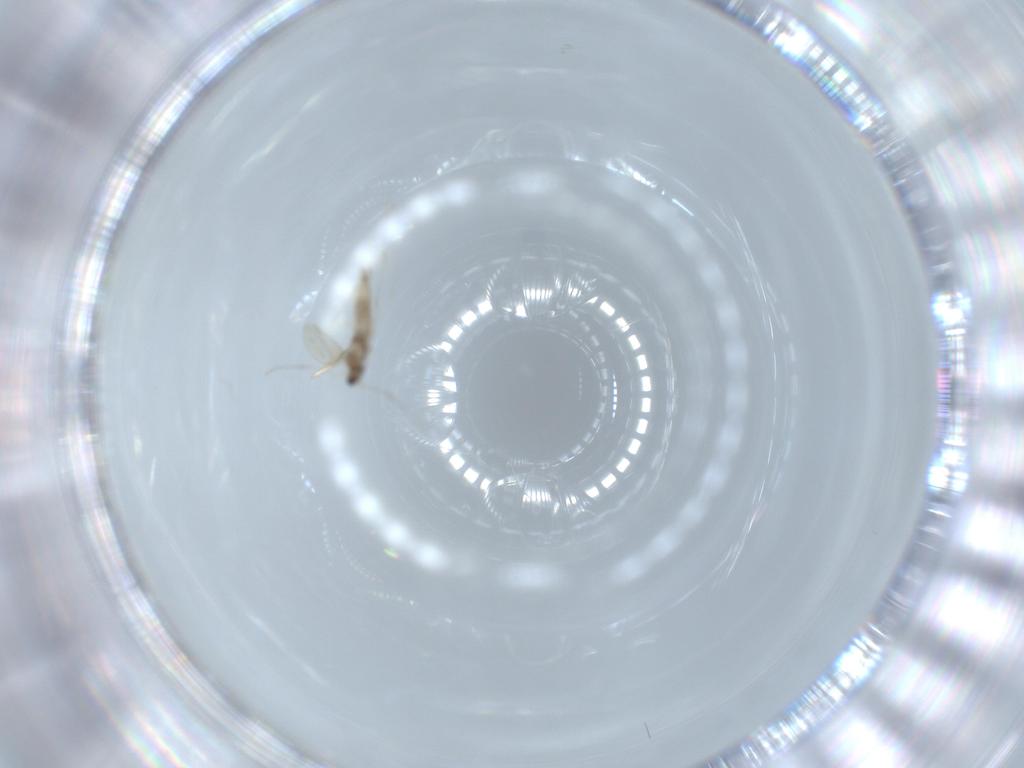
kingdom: Animalia
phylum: Arthropoda
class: Insecta
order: Diptera
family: Cecidomyiidae
